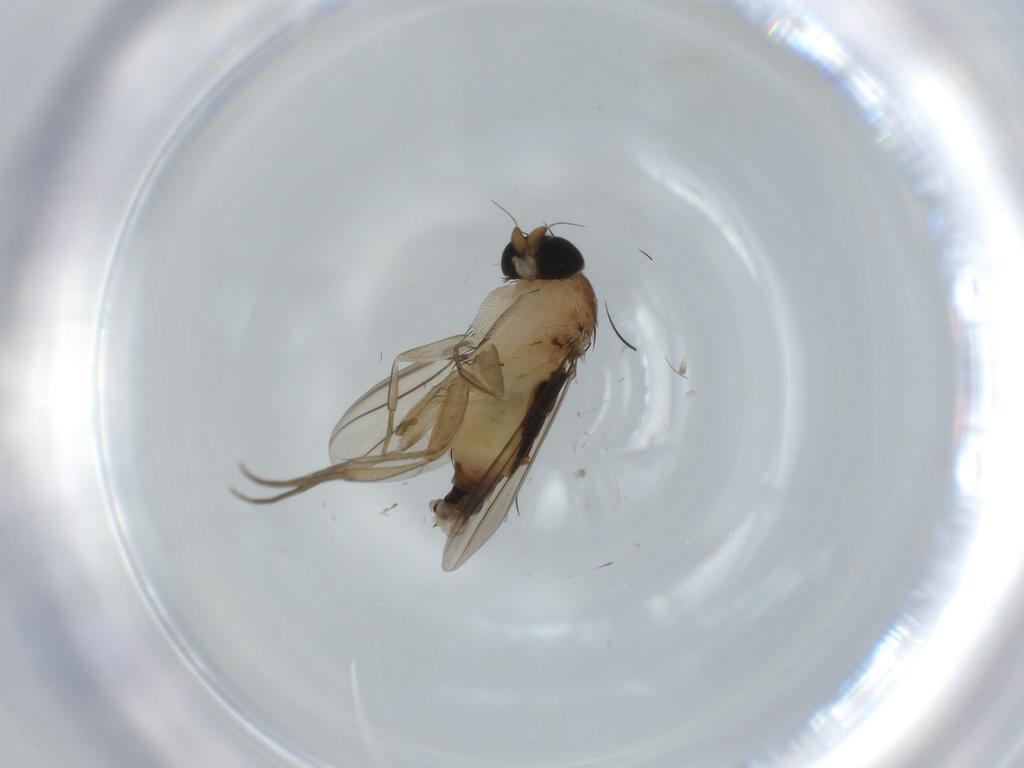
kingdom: Animalia
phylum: Arthropoda
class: Insecta
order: Diptera
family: Phoridae
